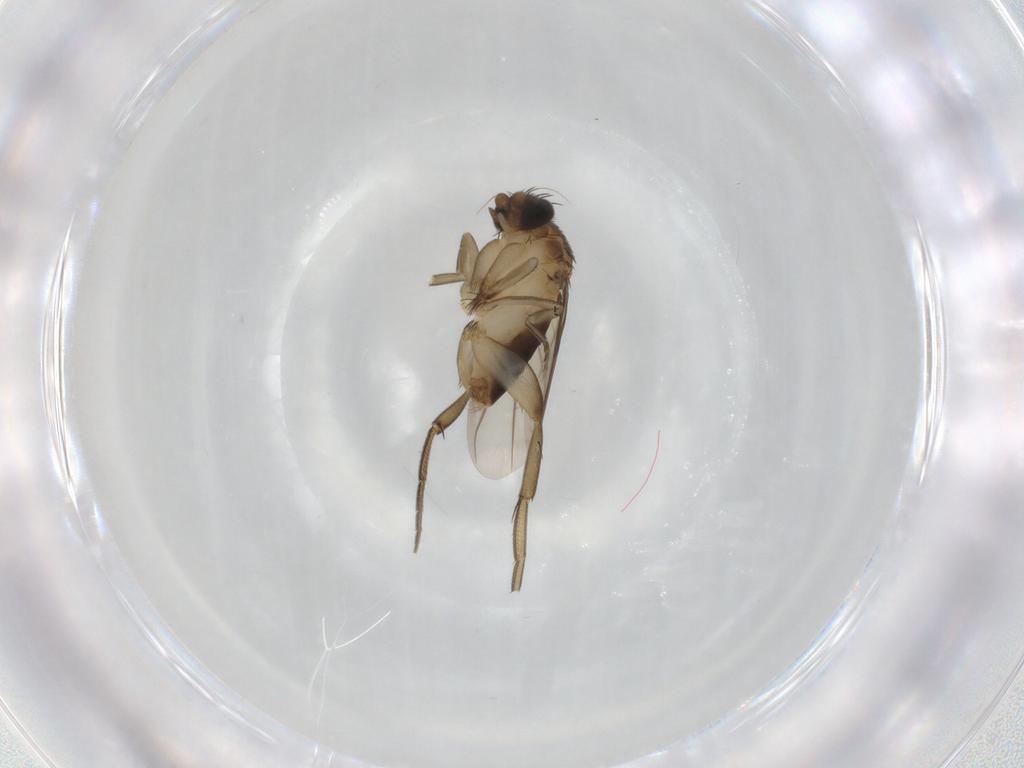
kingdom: Animalia
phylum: Arthropoda
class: Insecta
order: Diptera
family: Phoridae
